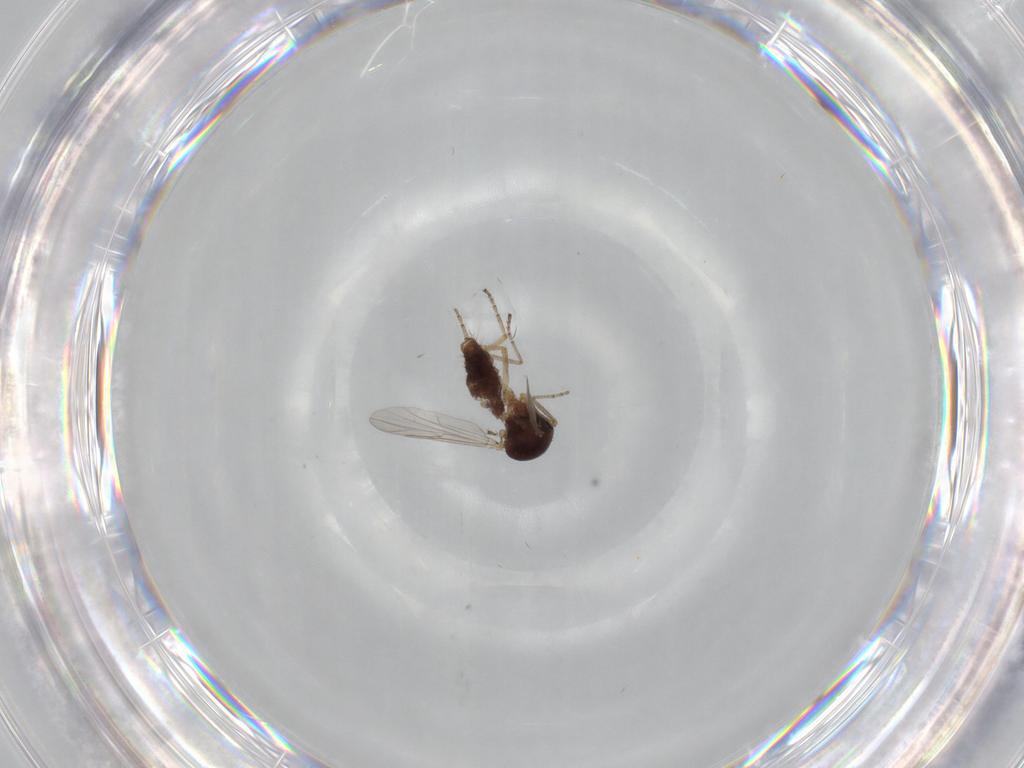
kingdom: Animalia
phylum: Arthropoda
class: Insecta
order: Diptera
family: Ceratopogonidae
